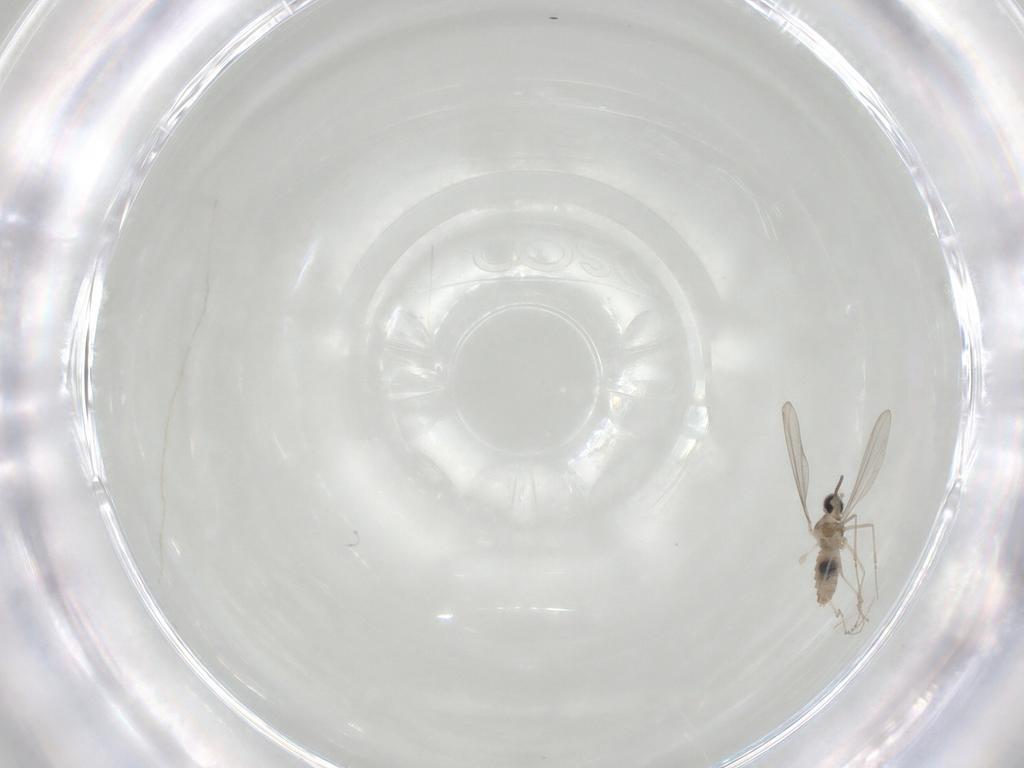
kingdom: Animalia
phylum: Arthropoda
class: Insecta
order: Diptera
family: Cecidomyiidae
